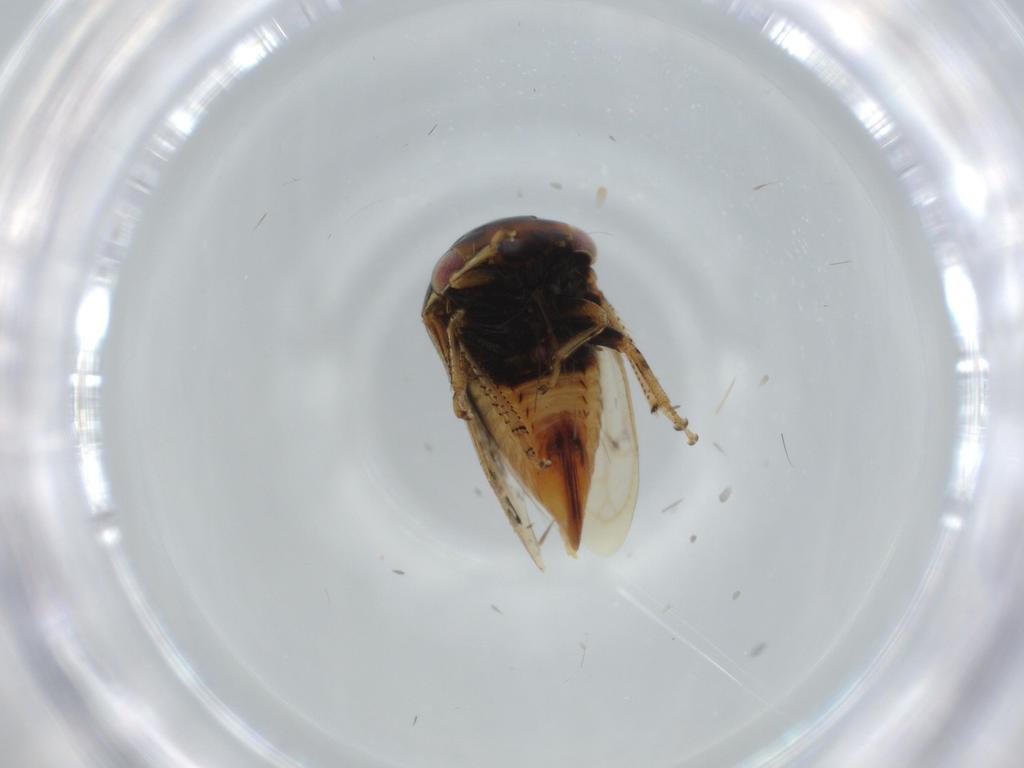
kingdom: Animalia
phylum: Arthropoda
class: Insecta
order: Hemiptera
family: Membracidae
